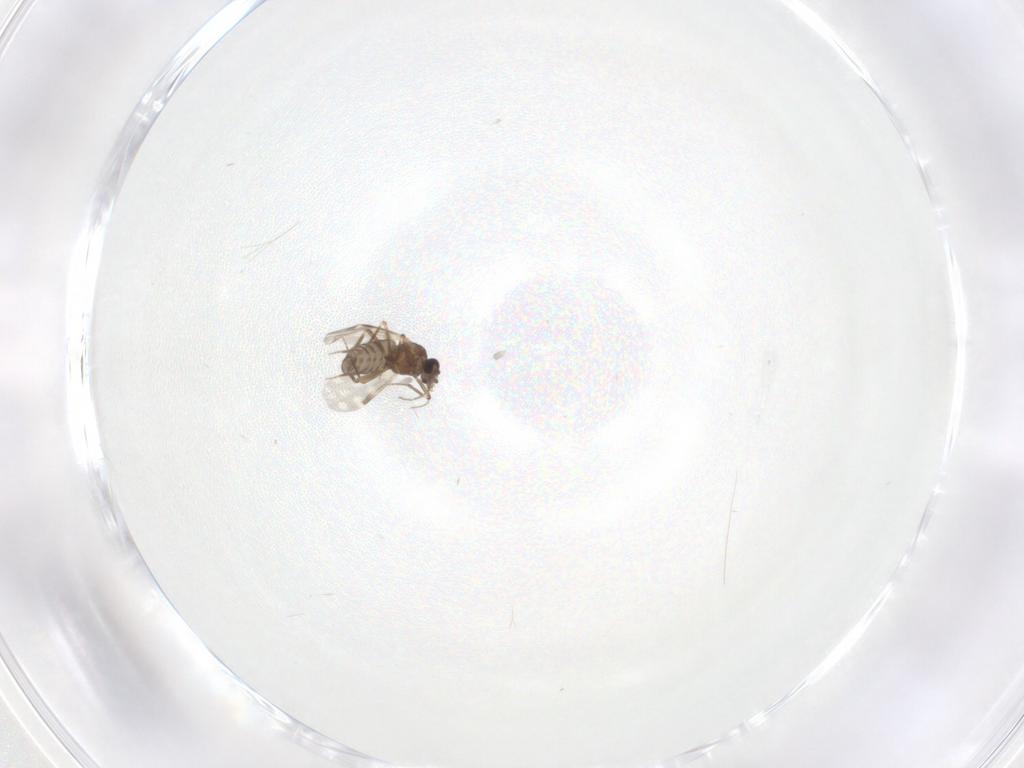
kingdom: Animalia
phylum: Arthropoda
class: Insecta
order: Diptera
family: Ceratopogonidae
